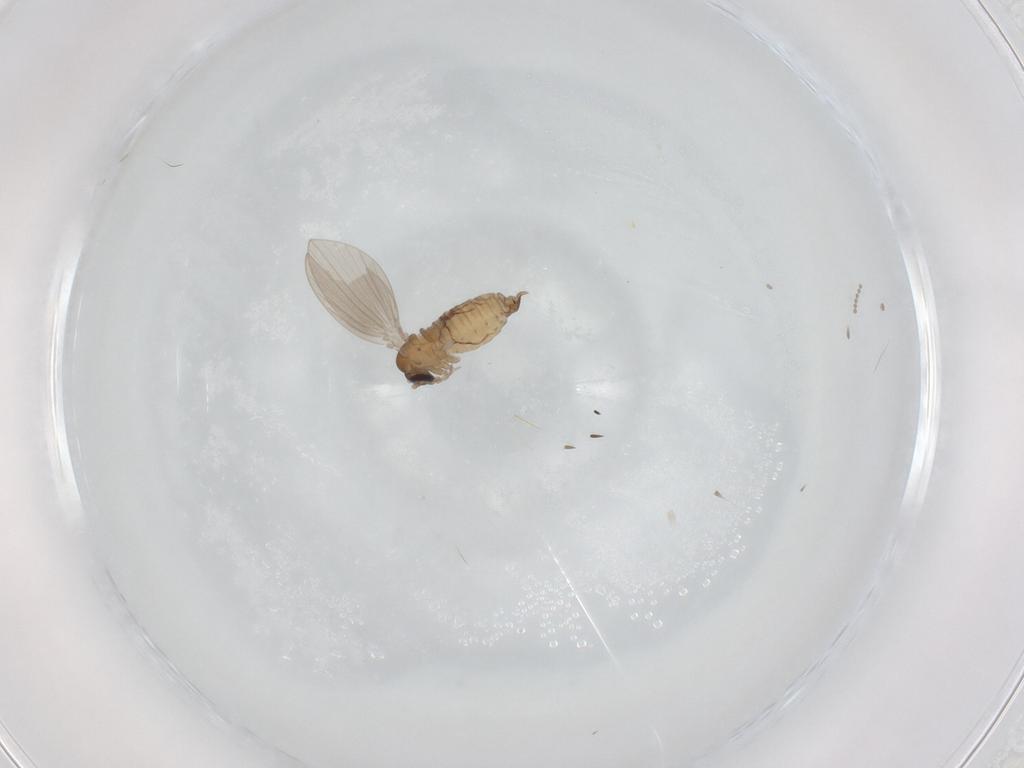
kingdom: Animalia
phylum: Arthropoda
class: Insecta
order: Diptera
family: Psychodidae
